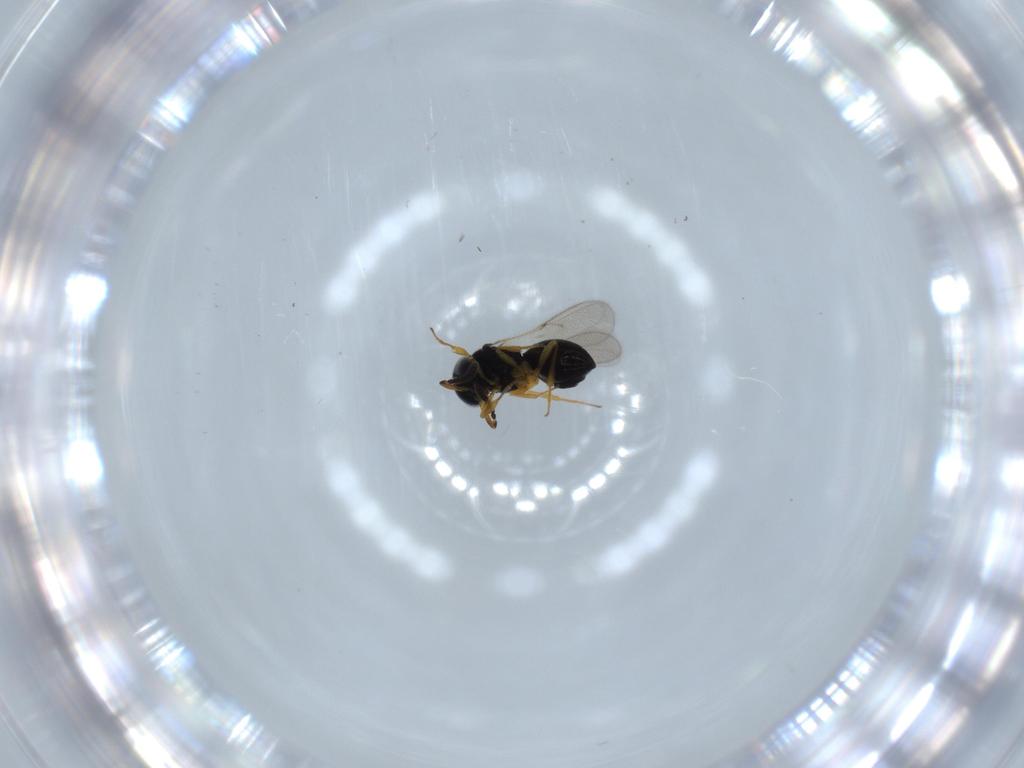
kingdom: Animalia
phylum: Arthropoda
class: Insecta
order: Hymenoptera
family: Scelionidae
